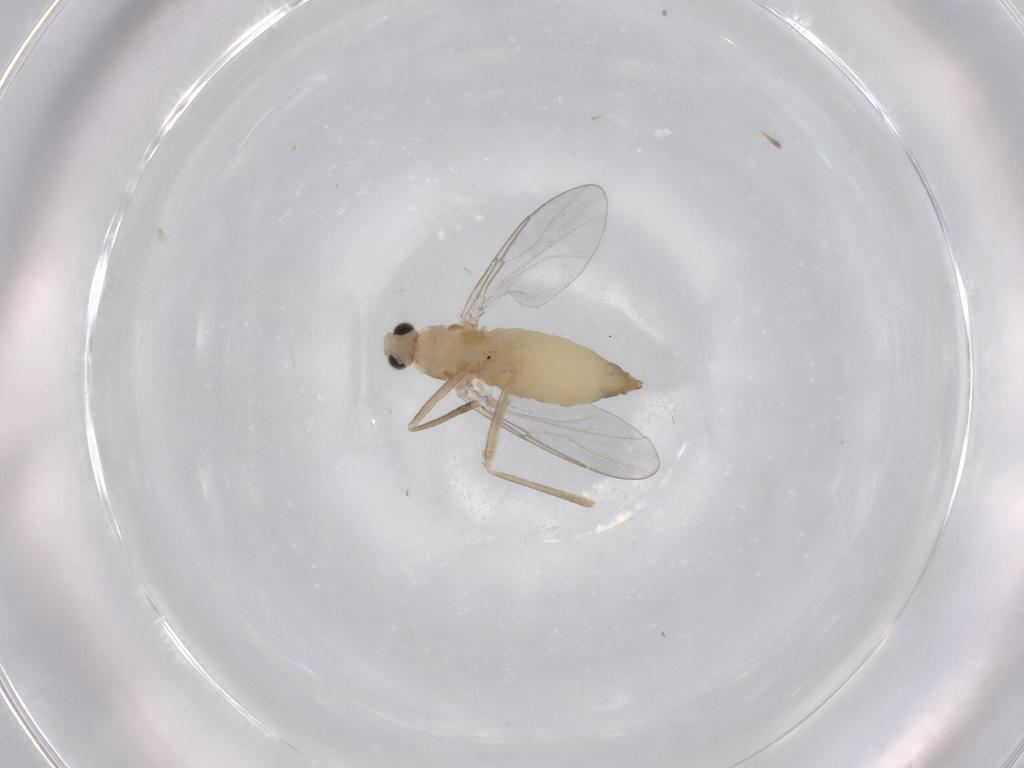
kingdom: Animalia
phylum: Arthropoda
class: Insecta
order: Diptera
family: Cecidomyiidae
